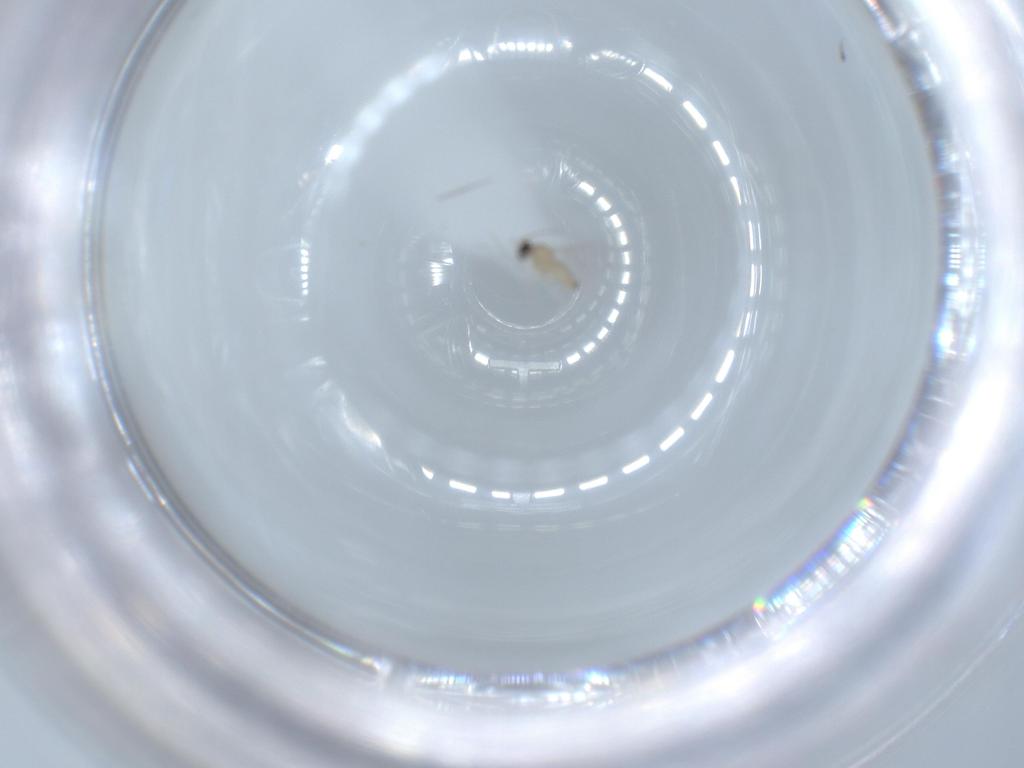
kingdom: Animalia
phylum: Arthropoda
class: Insecta
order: Diptera
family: Cecidomyiidae
